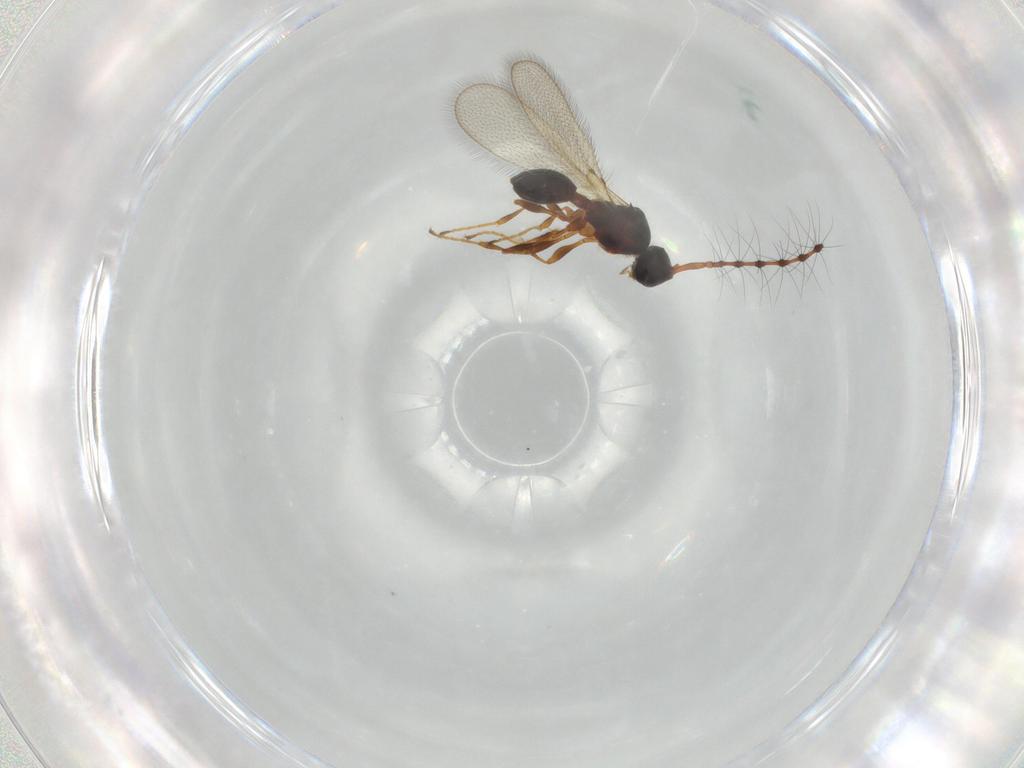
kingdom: Animalia
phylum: Arthropoda
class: Insecta
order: Hymenoptera
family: Diapriidae
